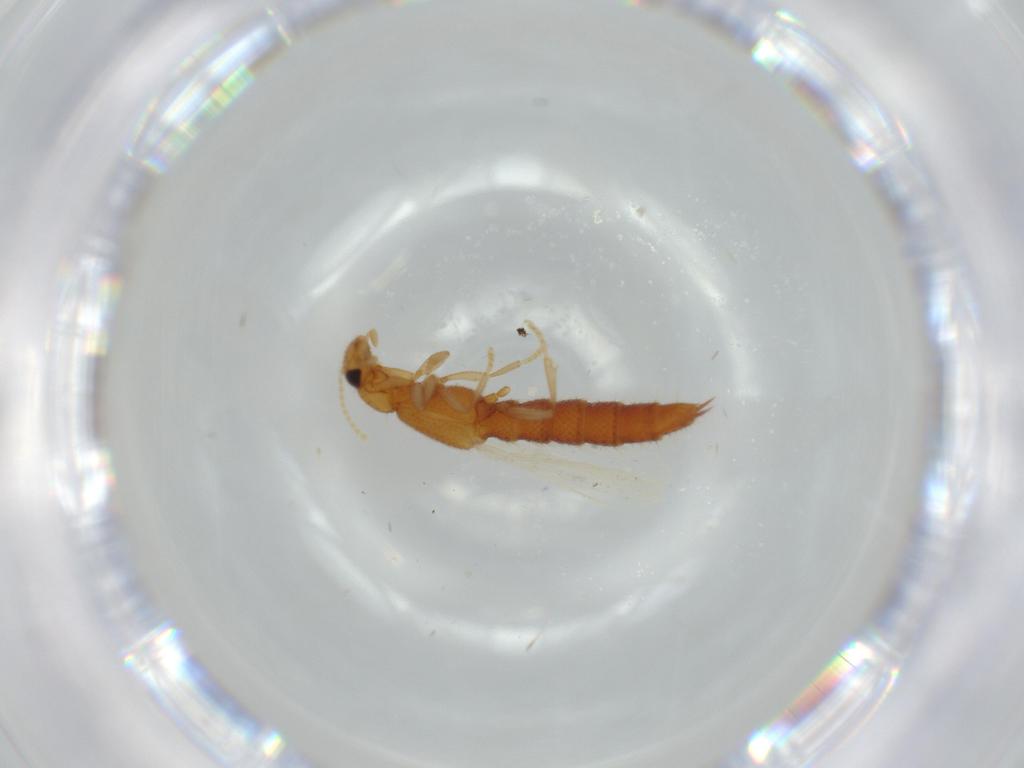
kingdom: Animalia
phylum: Arthropoda
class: Insecta
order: Coleoptera
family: Staphylinidae
